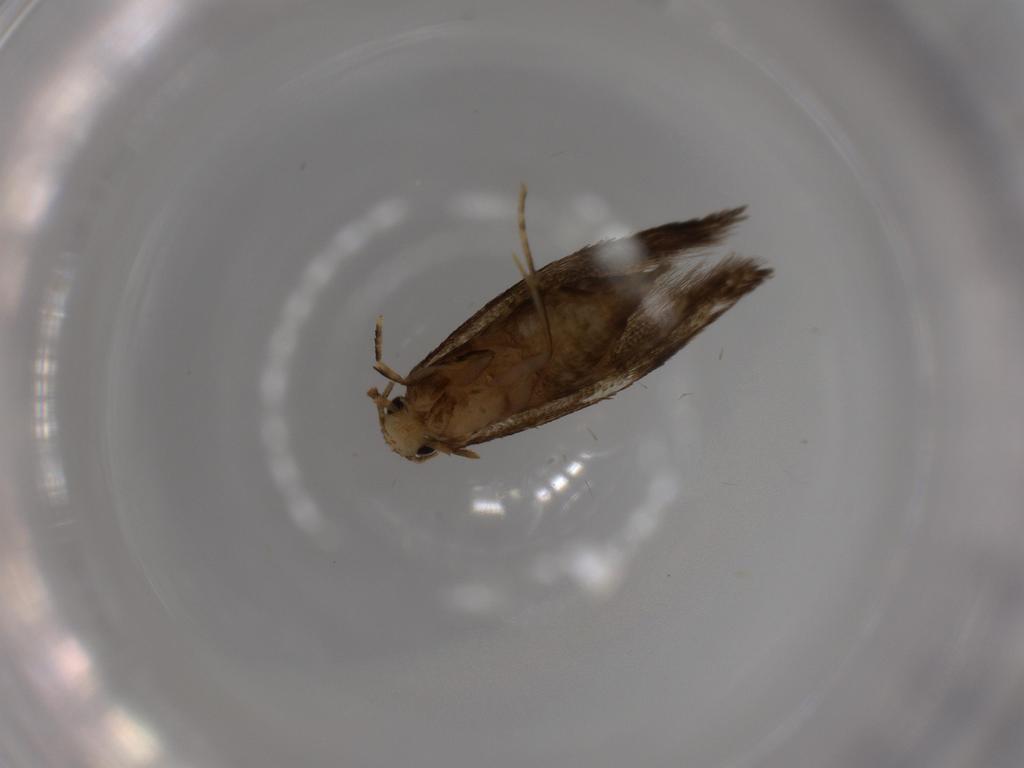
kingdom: Animalia
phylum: Arthropoda
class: Insecta
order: Lepidoptera
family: Tineidae
